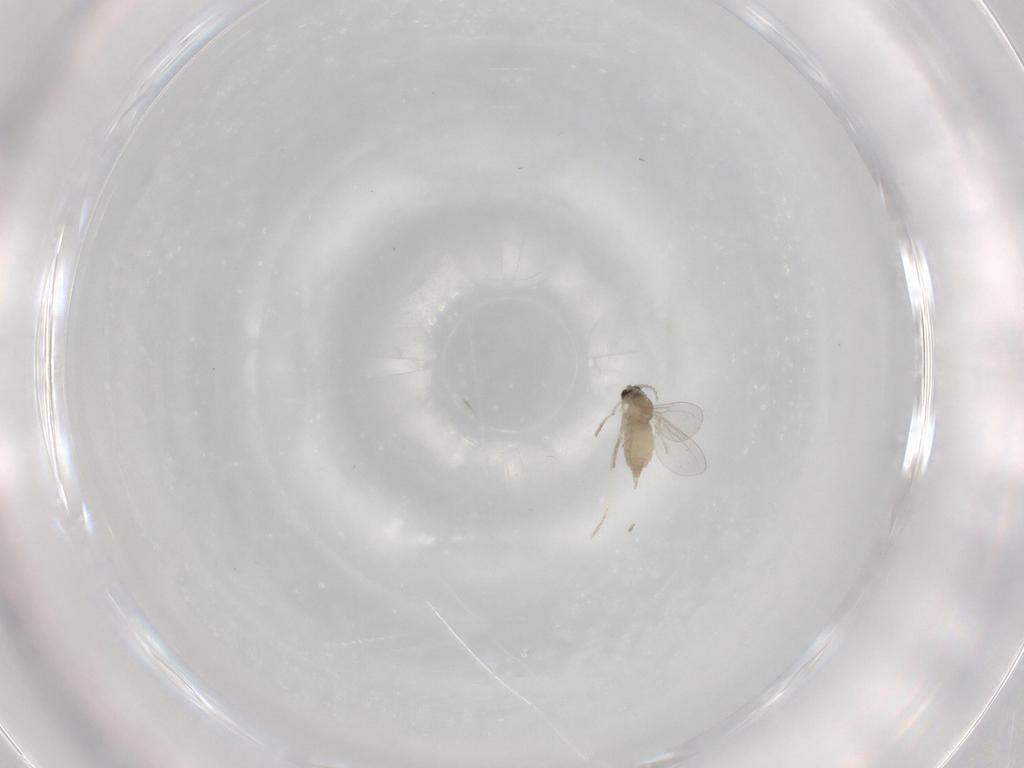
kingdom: Animalia
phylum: Arthropoda
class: Insecta
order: Diptera
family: Cecidomyiidae
